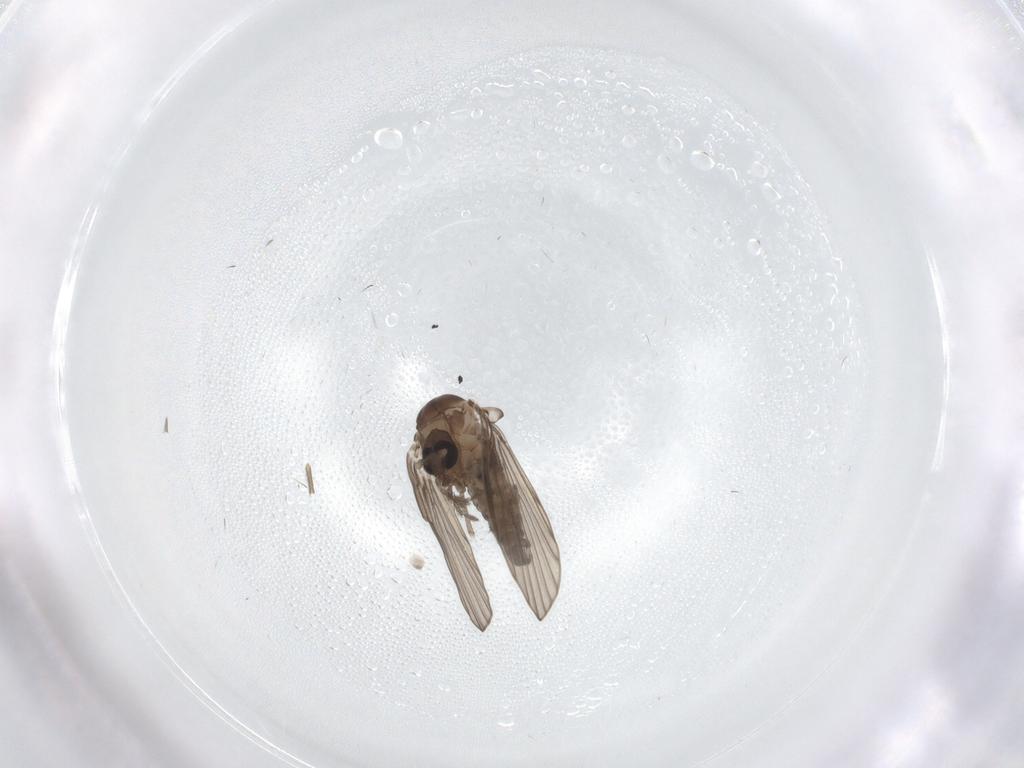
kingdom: Animalia
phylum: Arthropoda
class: Insecta
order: Diptera
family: Psychodidae
